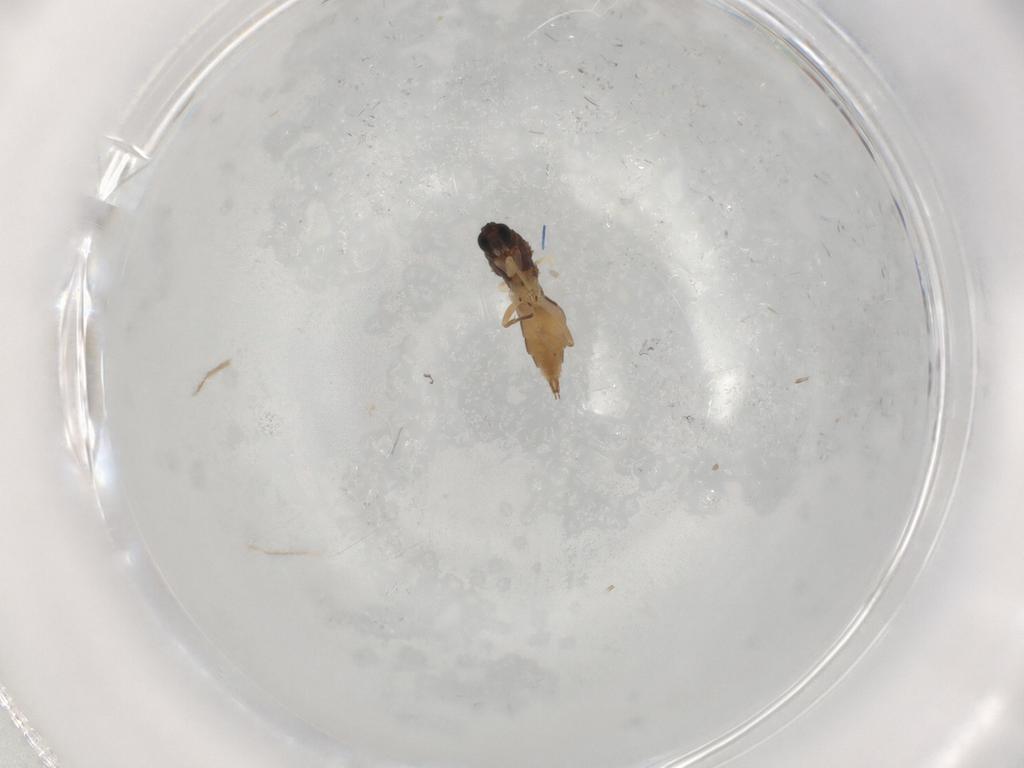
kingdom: Animalia
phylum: Arthropoda
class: Insecta
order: Diptera
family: Sciaridae
